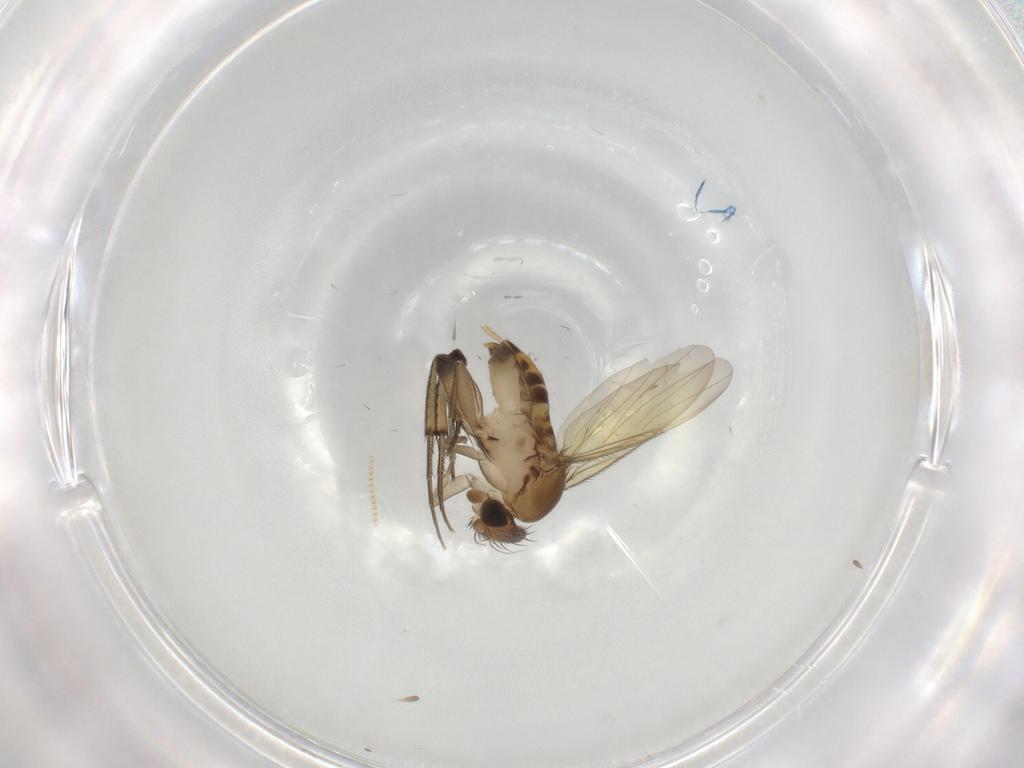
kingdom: Animalia
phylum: Arthropoda
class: Insecta
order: Diptera
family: Phoridae
